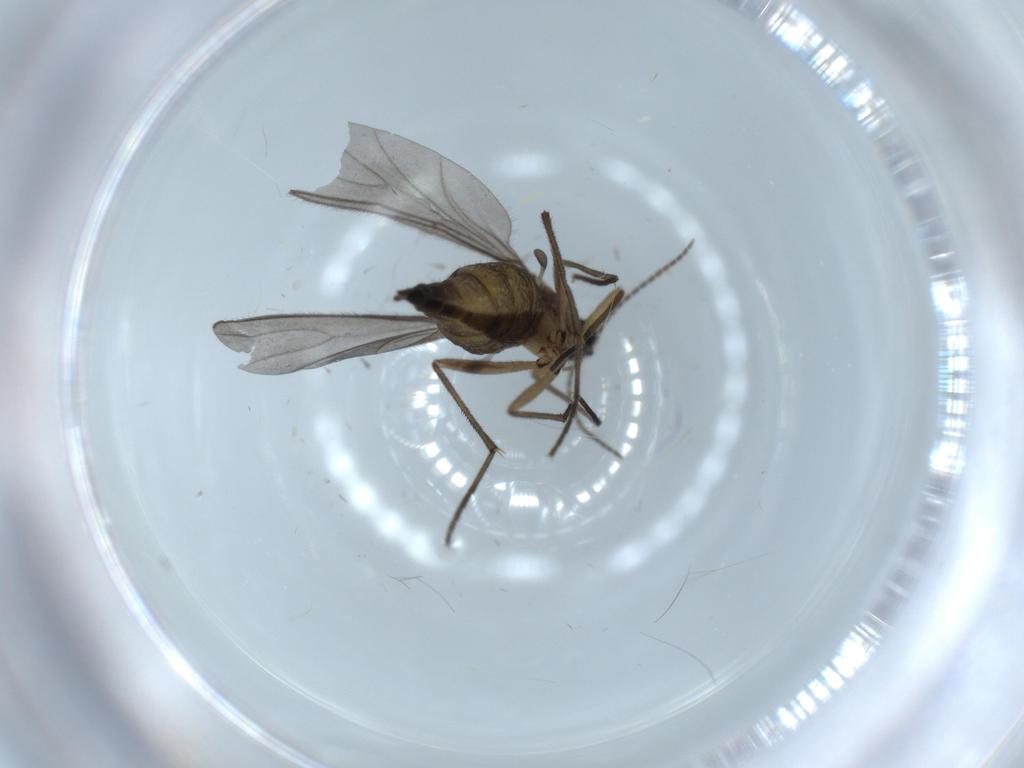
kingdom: Animalia
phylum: Arthropoda
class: Insecta
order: Diptera
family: Sciaridae
